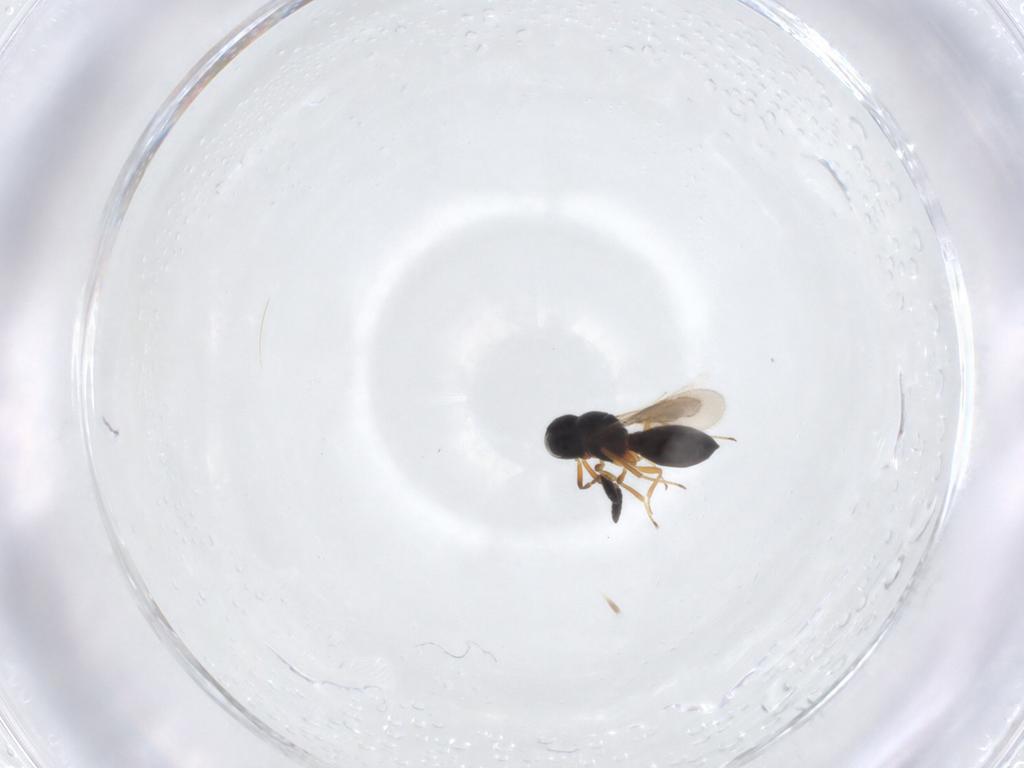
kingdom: Animalia
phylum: Arthropoda
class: Insecta
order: Hymenoptera
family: Scelionidae
